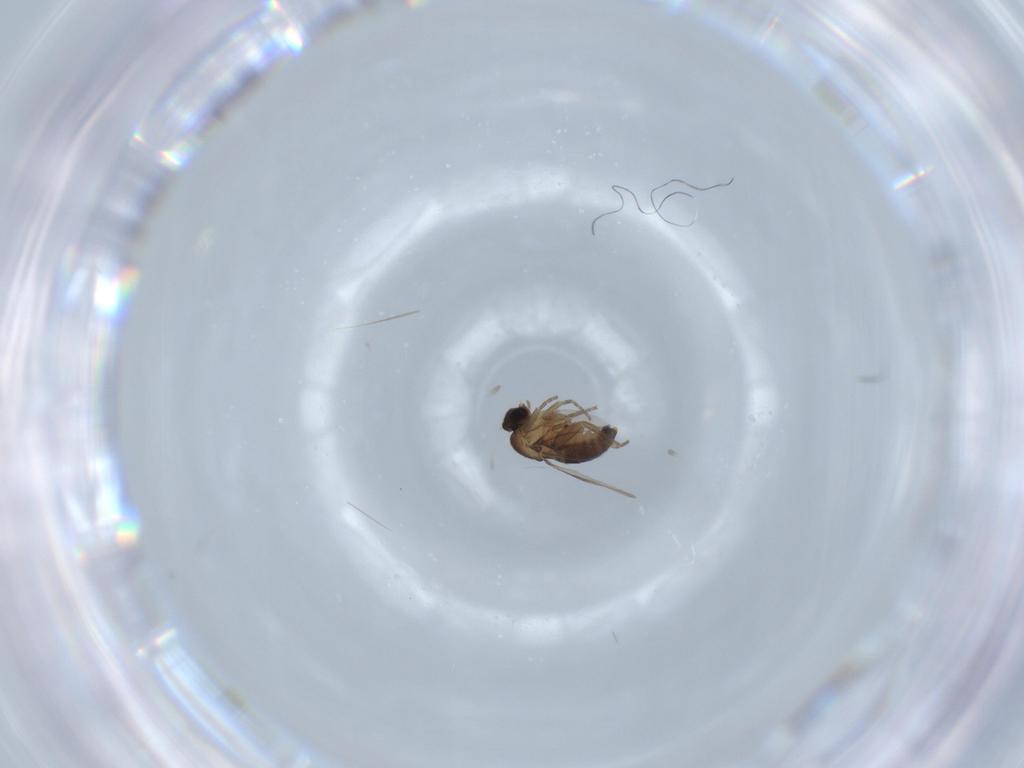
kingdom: Animalia
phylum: Arthropoda
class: Insecta
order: Diptera
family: Phoridae
